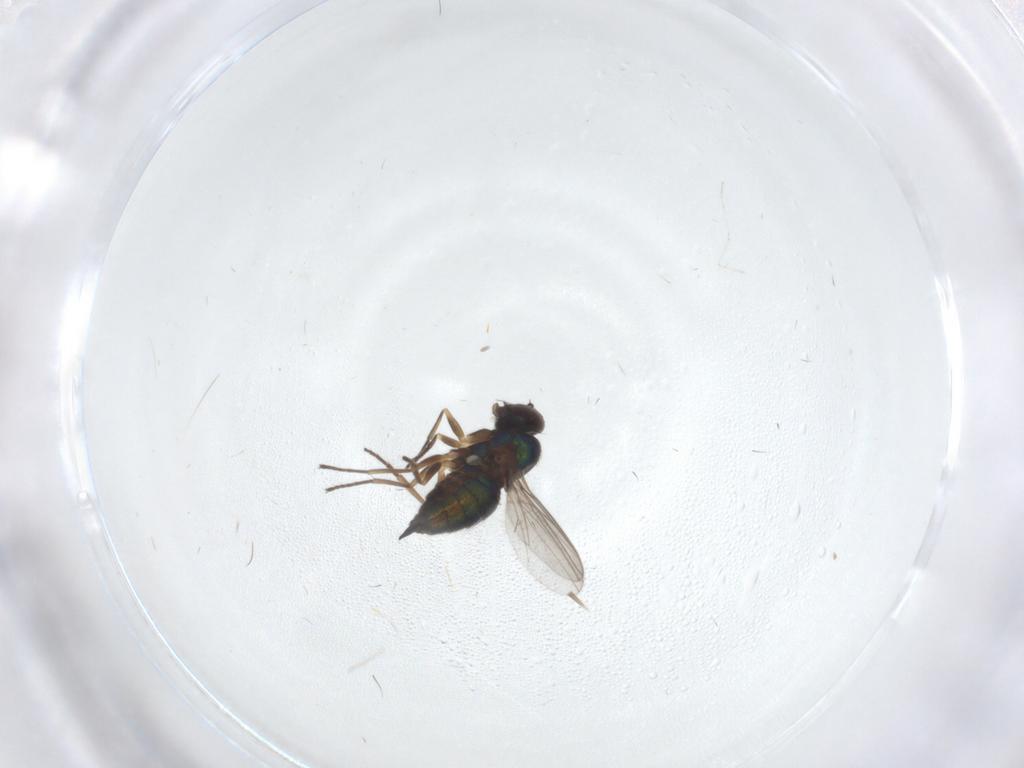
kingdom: Animalia
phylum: Arthropoda
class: Insecta
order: Diptera
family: Dolichopodidae
